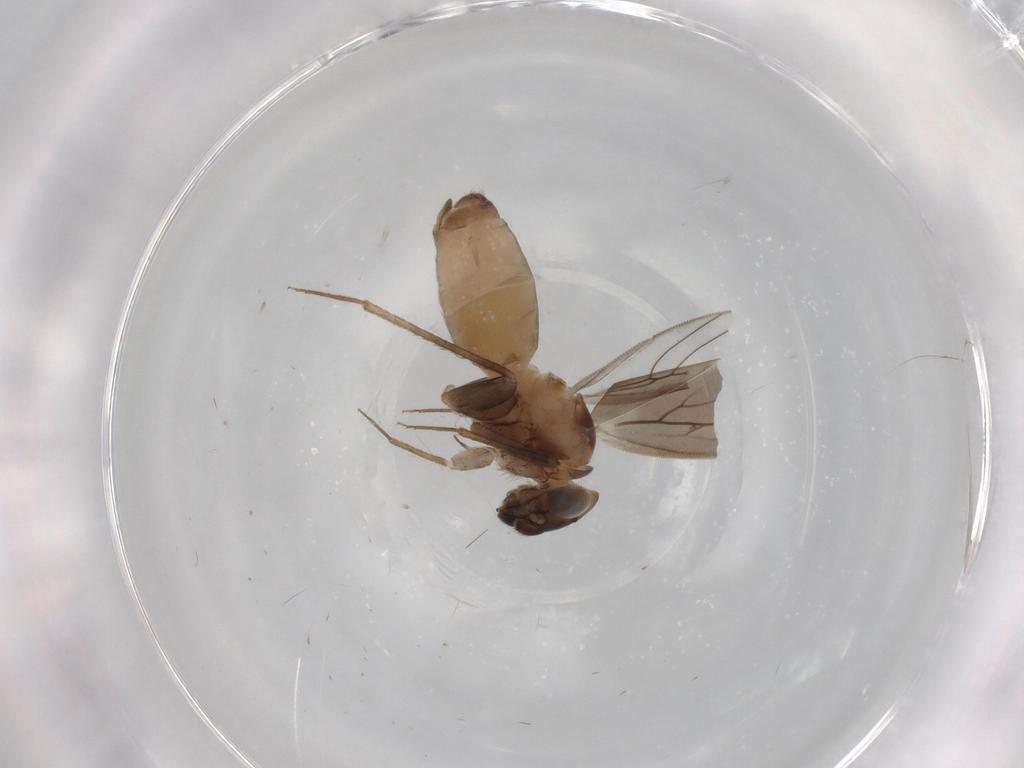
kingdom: Animalia
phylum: Arthropoda
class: Insecta
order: Psocodea
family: Lepidopsocidae
